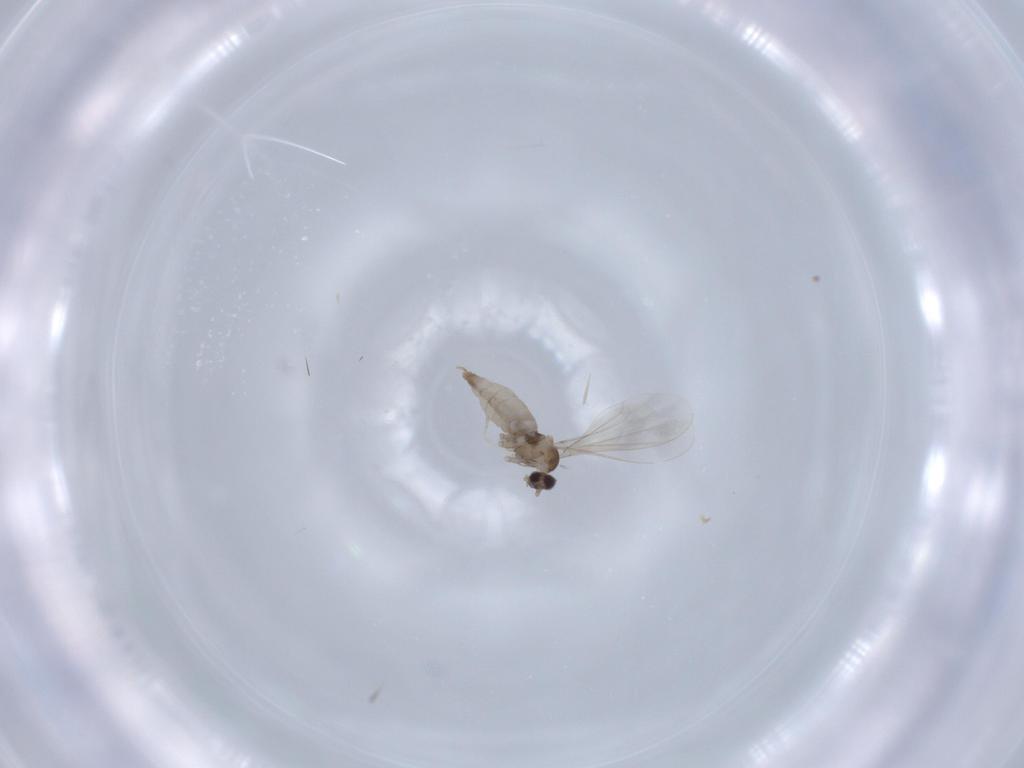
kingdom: Animalia
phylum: Arthropoda
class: Insecta
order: Diptera
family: Cecidomyiidae
